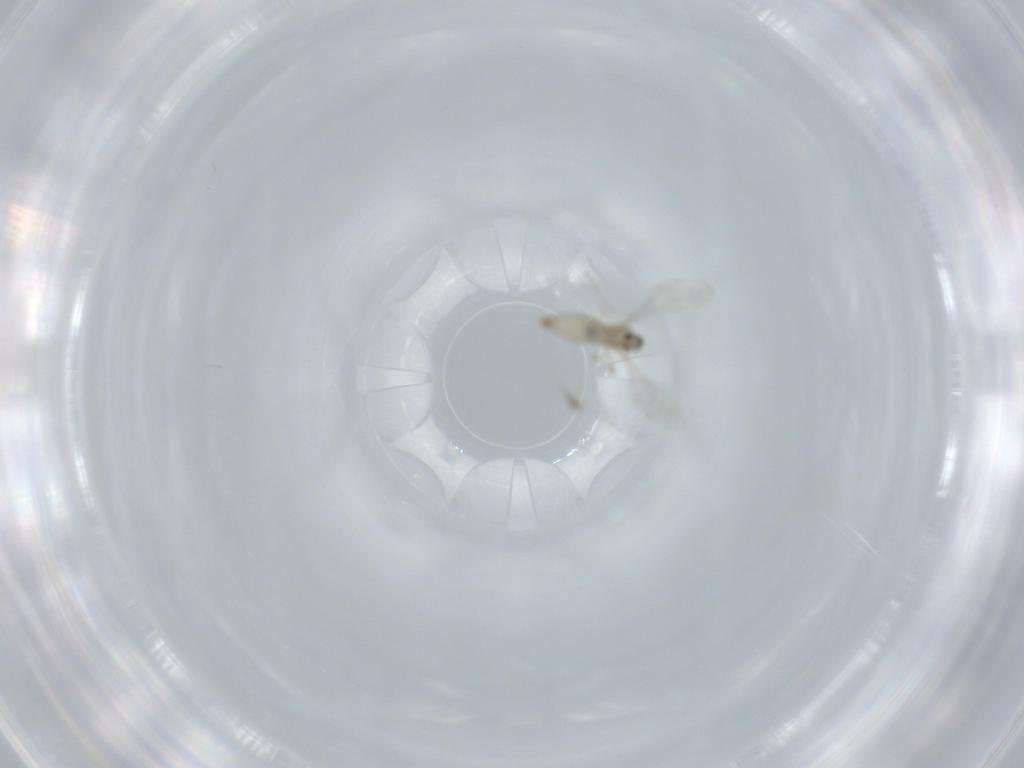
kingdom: Animalia
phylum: Arthropoda
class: Insecta
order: Diptera
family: Cecidomyiidae
